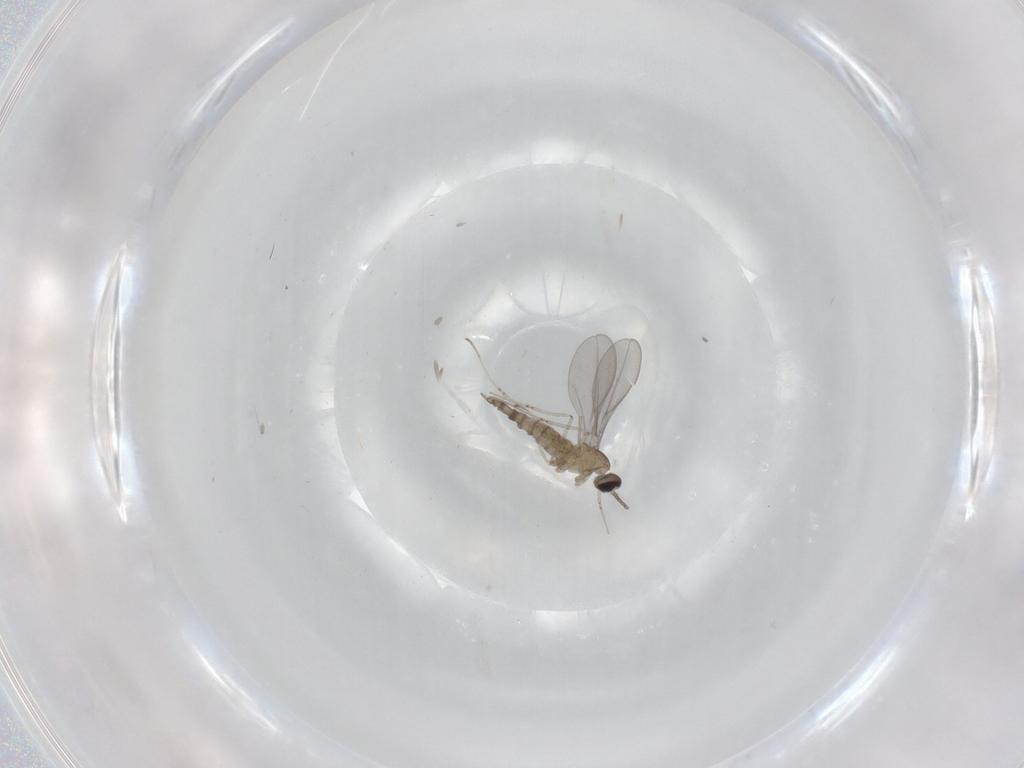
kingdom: Animalia
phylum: Arthropoda
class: Insecta
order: Diptera
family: Cecidomyiidae
